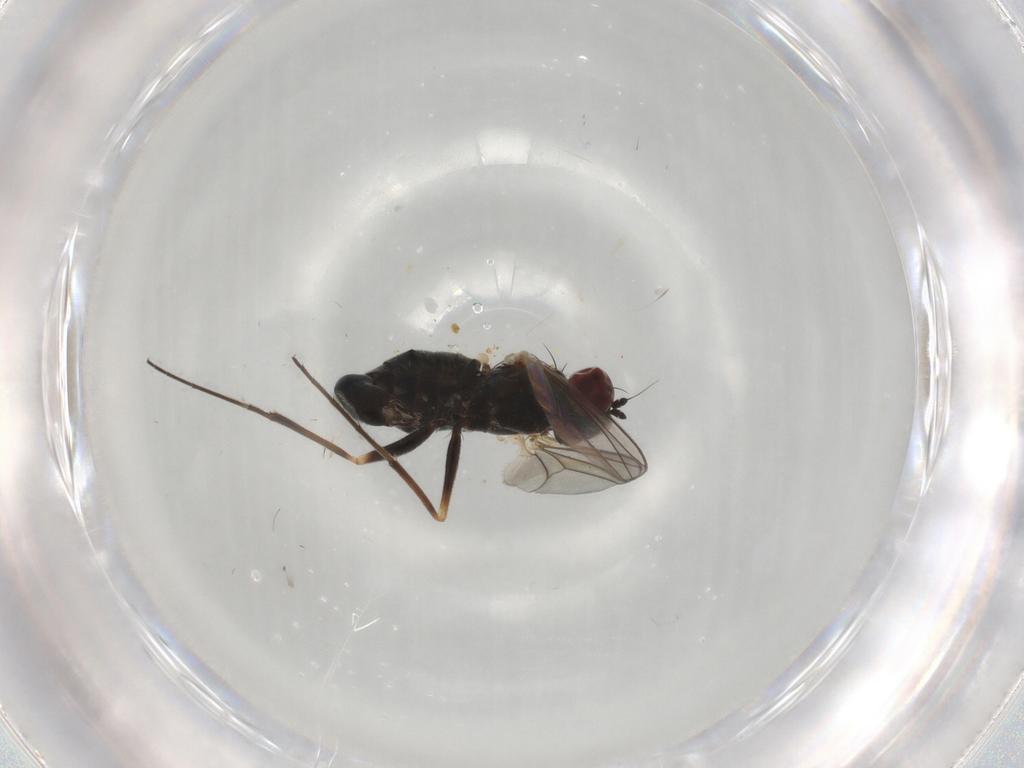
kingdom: Animalia
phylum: Arthropoda
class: Insecta
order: Diptera
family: Dolichopodidae
